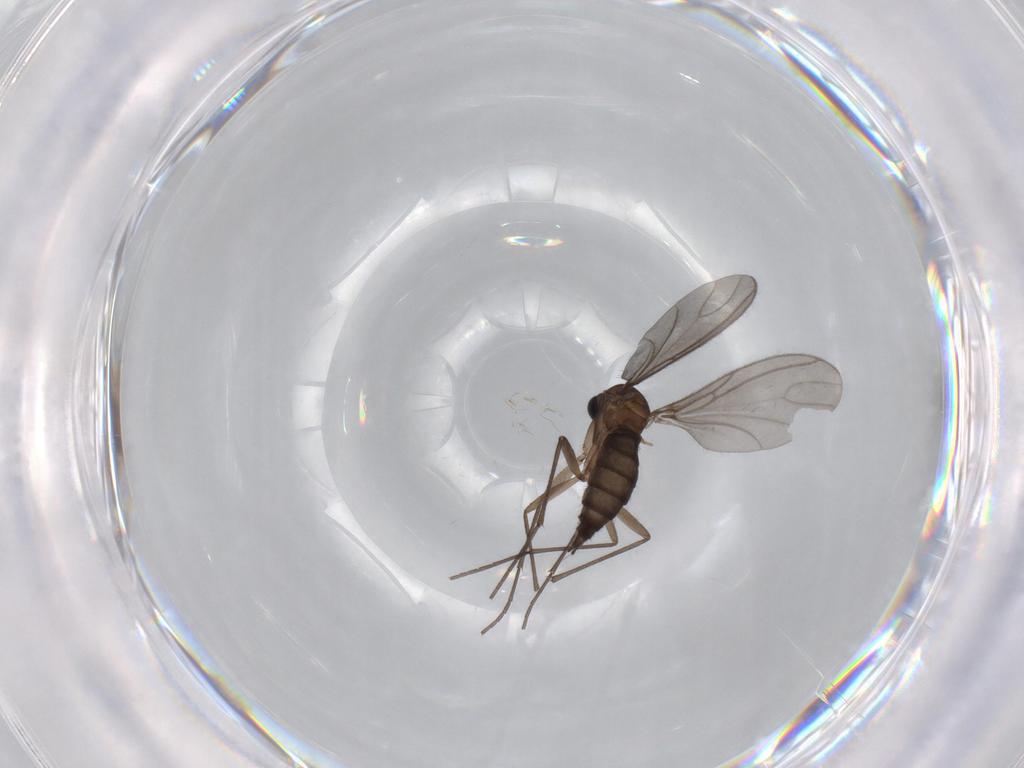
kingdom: Animalia
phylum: Arthropoda
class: Insecta
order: Diptera
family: Sciaridae
